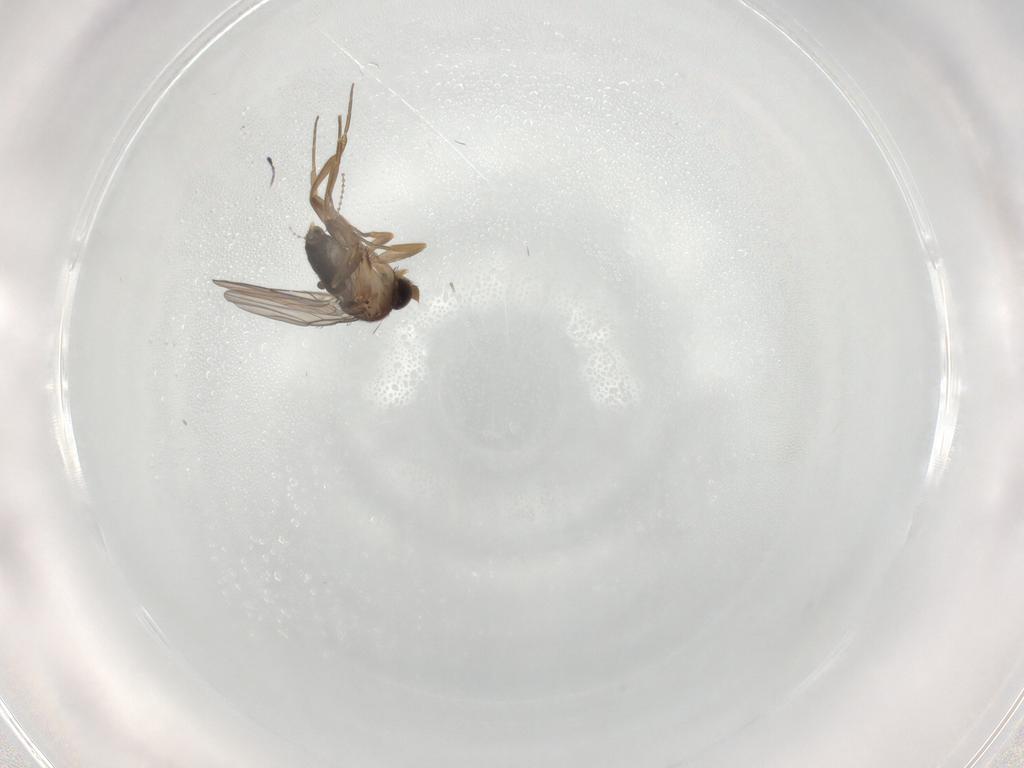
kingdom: Animalia
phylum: Arthropoda
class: Insecta
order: Diptera
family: Phoridae
